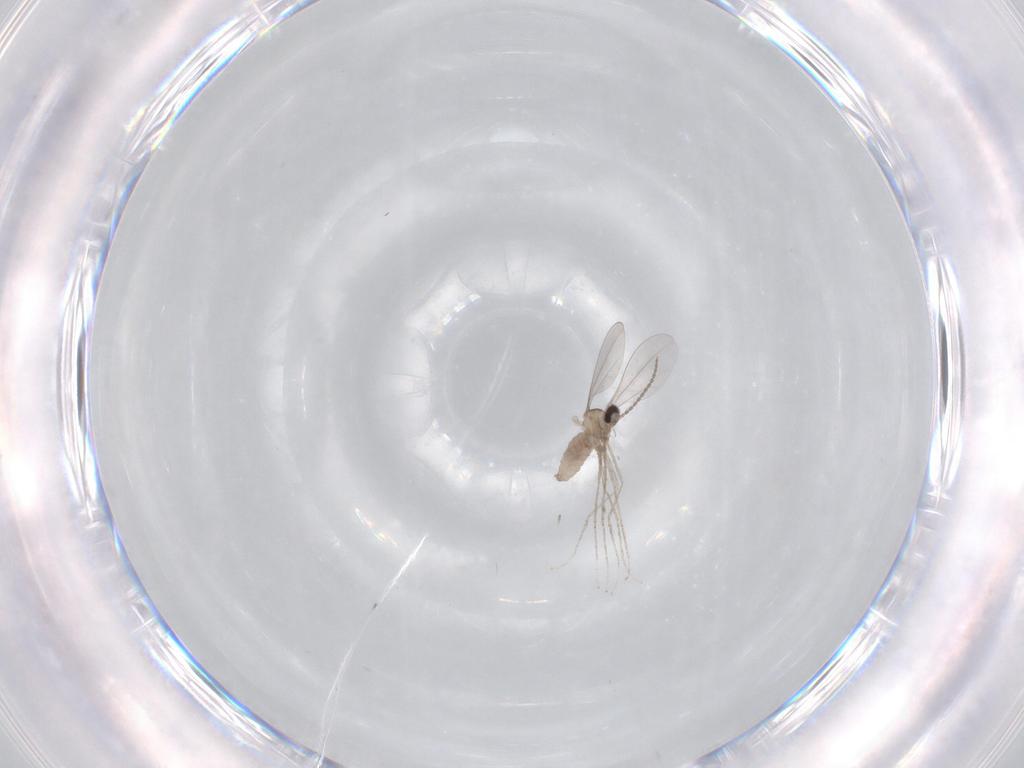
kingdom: Animalia
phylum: Arthropoda
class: Insecta
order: Diptera
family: Cecidomyiidae
